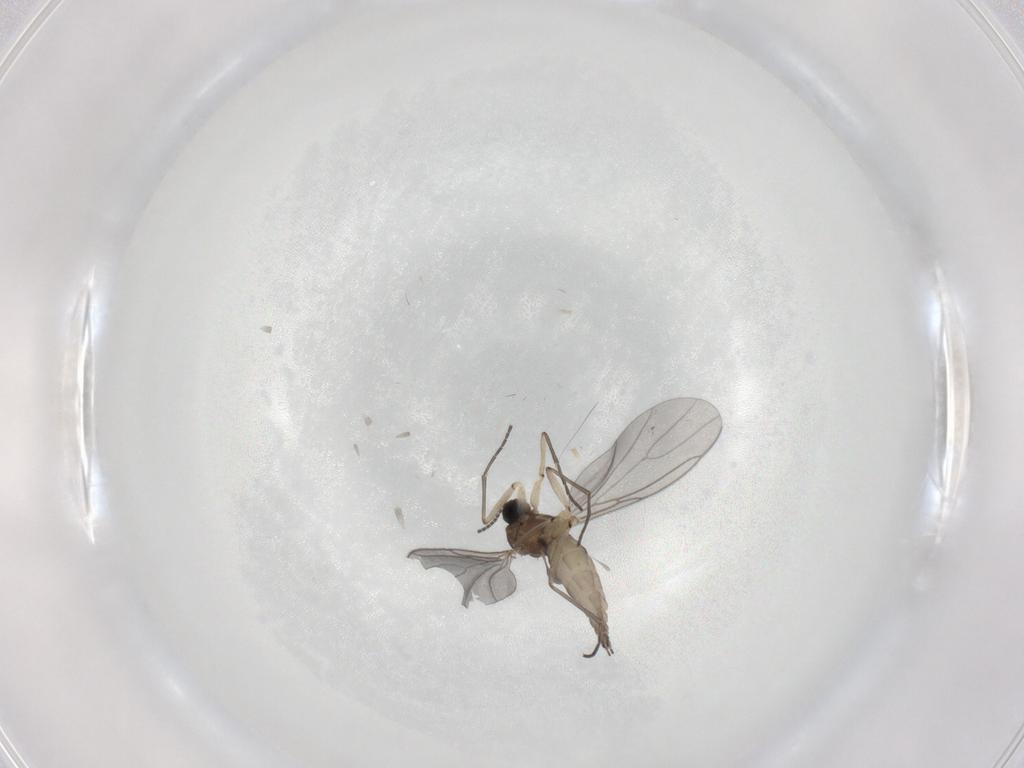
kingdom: Animalia
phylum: Arthropoda
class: Insecta
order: Diptera
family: Sciaridae
